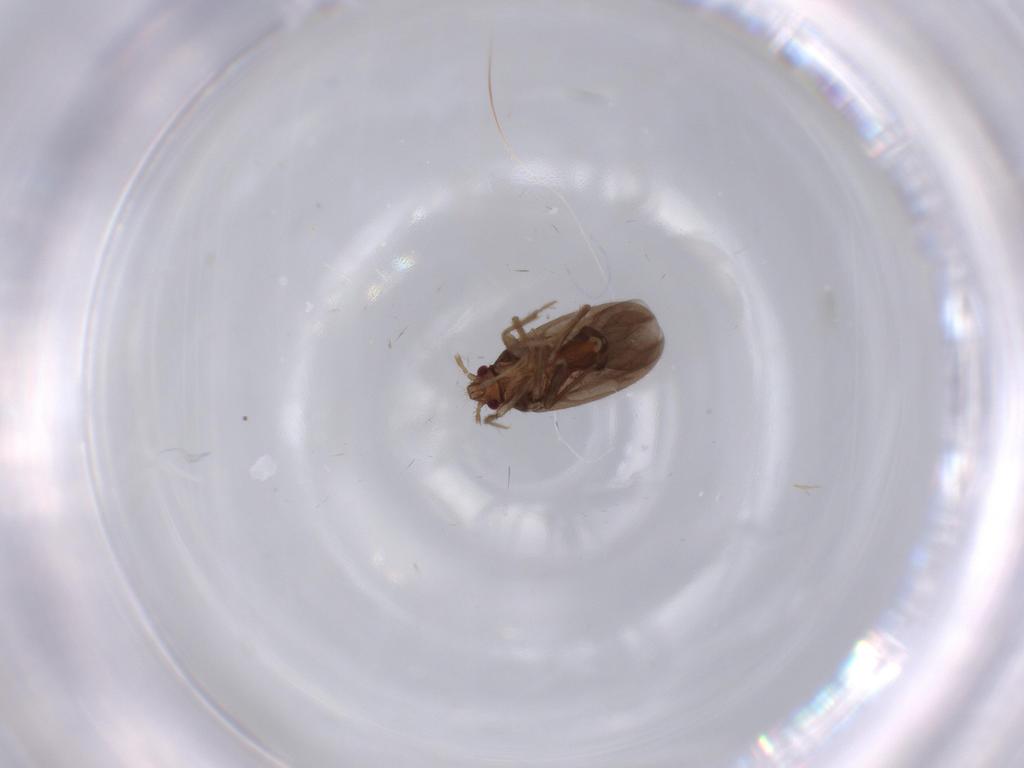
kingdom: Animalia
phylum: Arthropoda
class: Insecta
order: Hemiptera
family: Ceratocombidae
